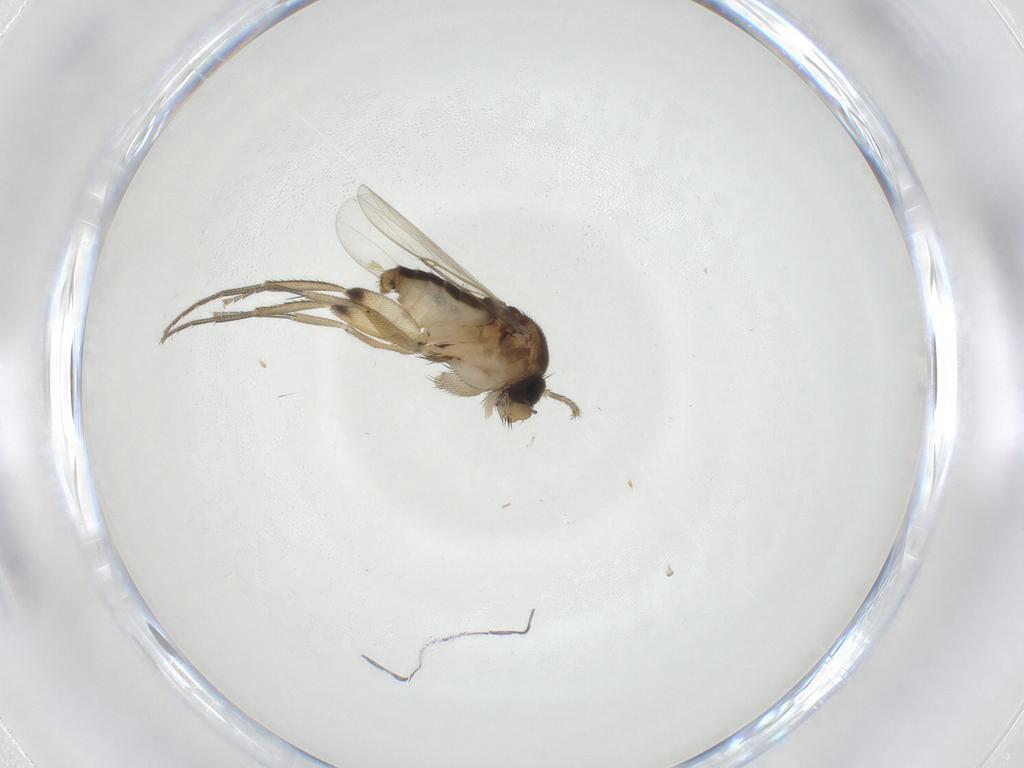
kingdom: Animalia
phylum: Arthropoda
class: Insecta
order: Diptera
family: Phoridae
